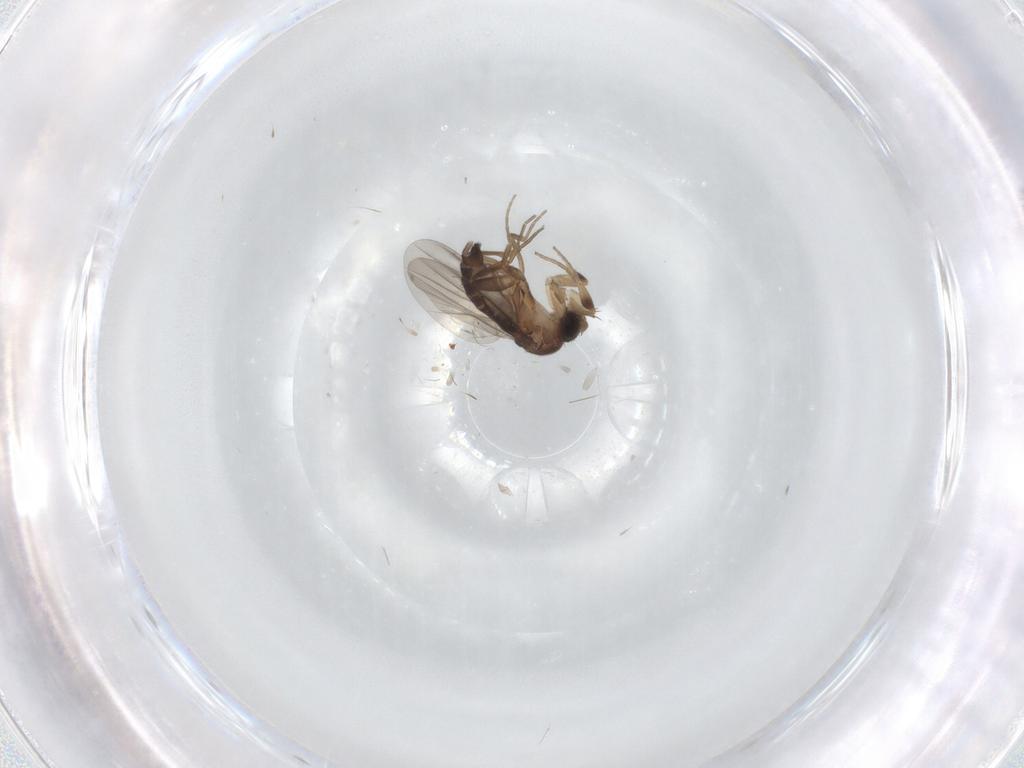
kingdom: Animalia
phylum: Arthropoda
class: Insecta
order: Diptera
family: Phoridae
